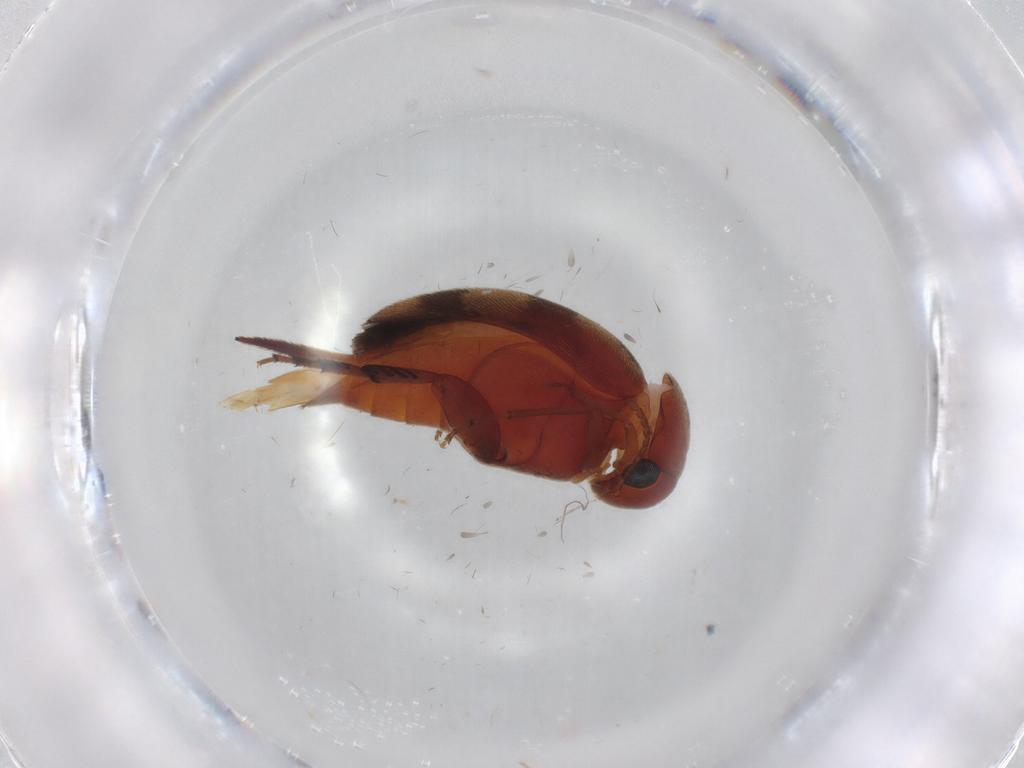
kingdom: Animalia
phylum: Arthropoda
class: Insecta
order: Coleoptera
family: Mordellidae
